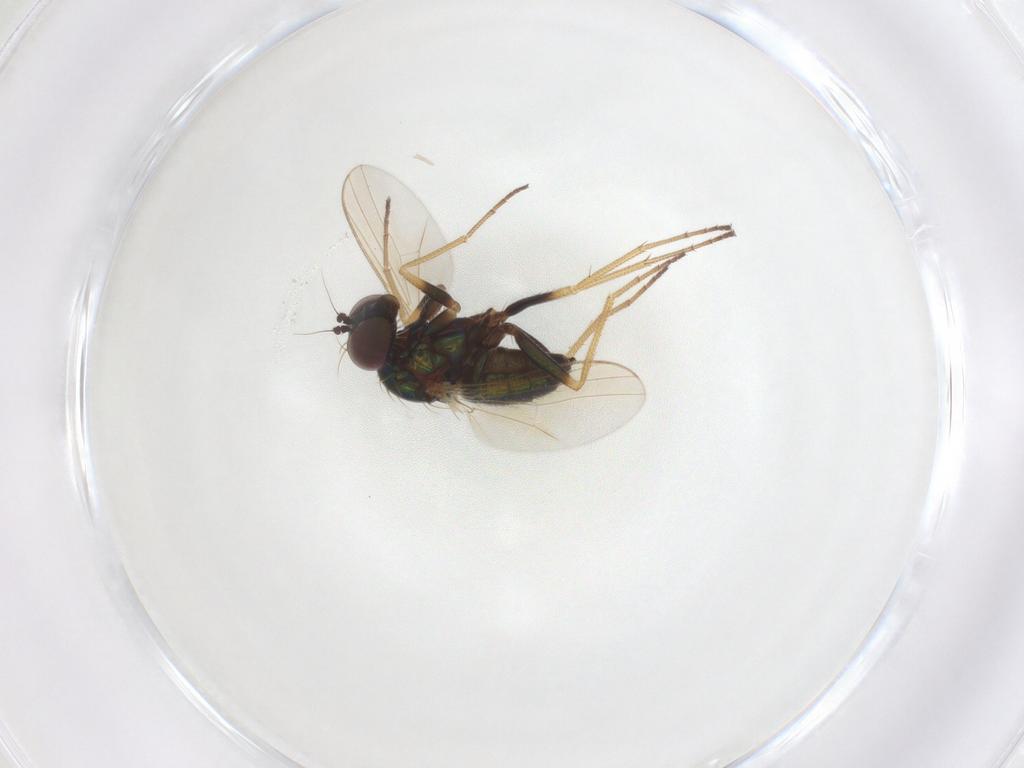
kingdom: Animalia
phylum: Arthropoda
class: Insecta
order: Diptera
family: Dolichopodidae
